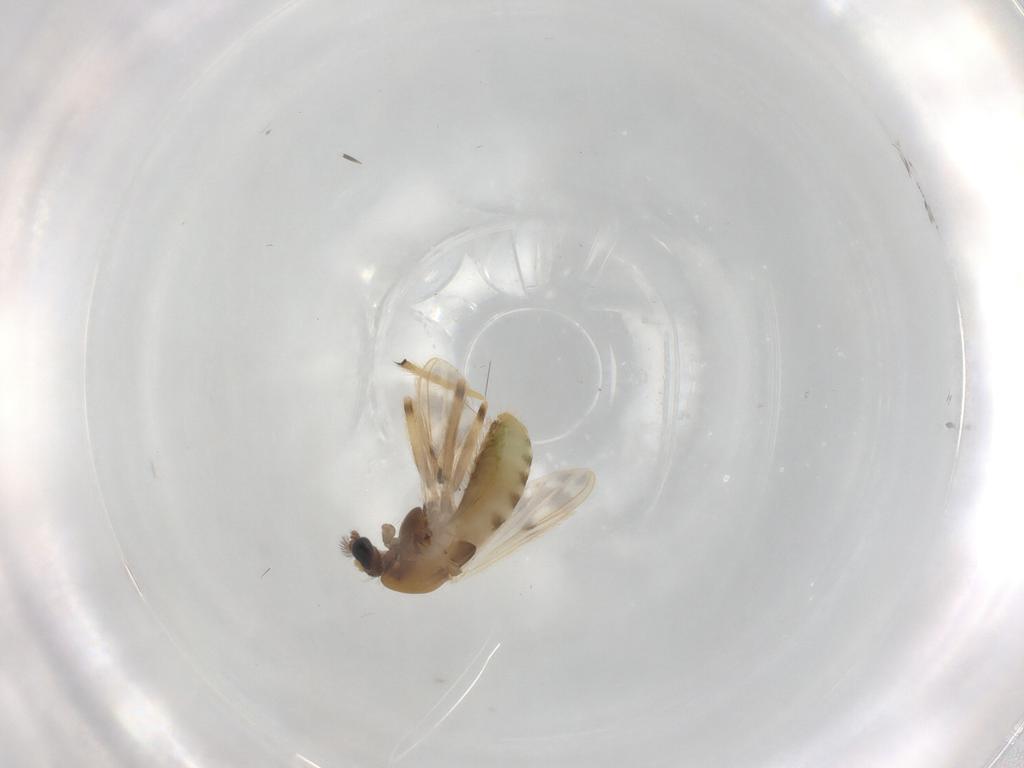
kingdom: Animalia
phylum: Arthropoda
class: Insecta
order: Diptera
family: Chironomidae
